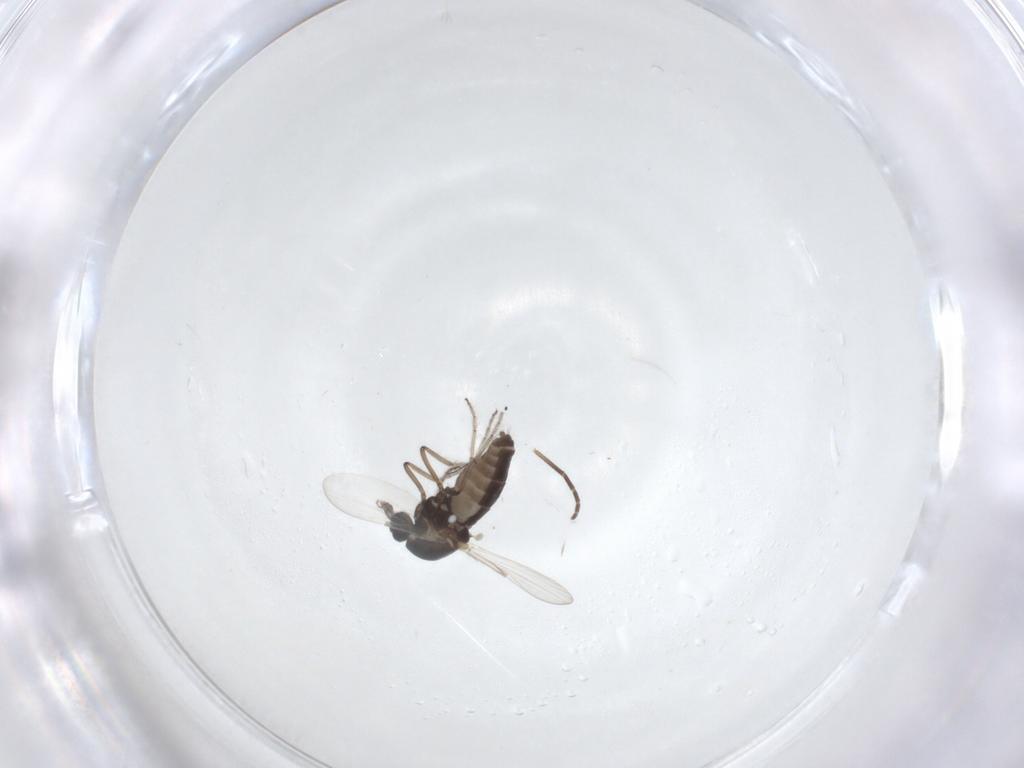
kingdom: Animalia
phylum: Arthropoda
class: Insecta
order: Diptera
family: Ceratopogonidae
